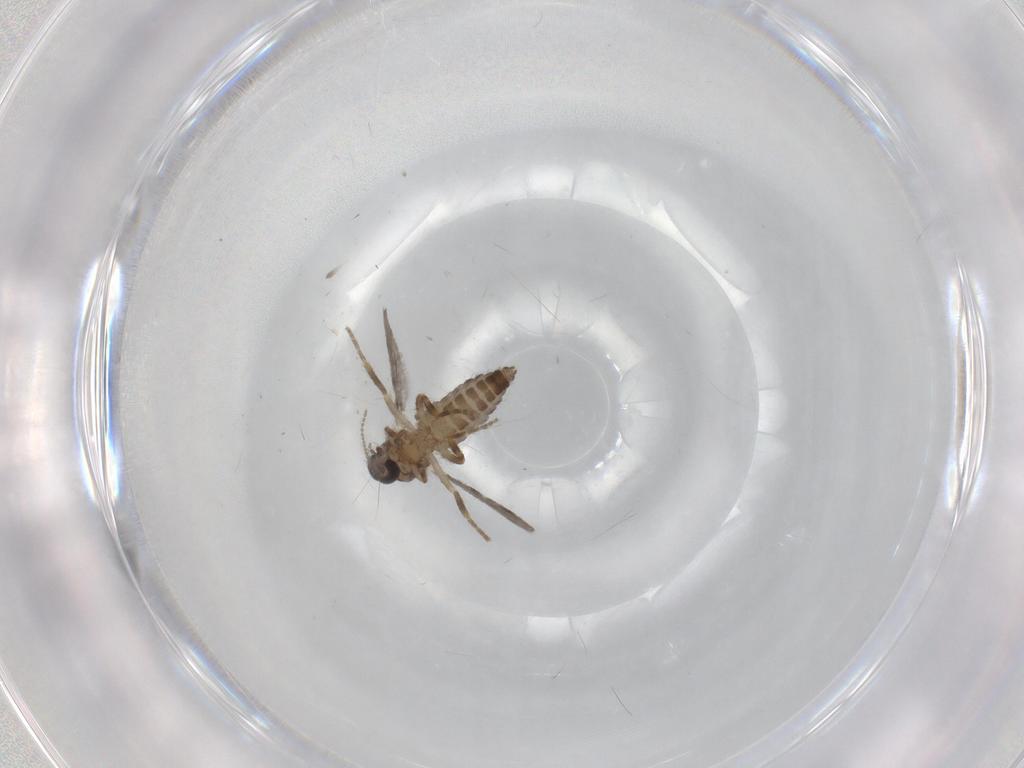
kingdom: Animalia
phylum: Arthropoda
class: Insecta
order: Diptera
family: Ceratopogonidae
